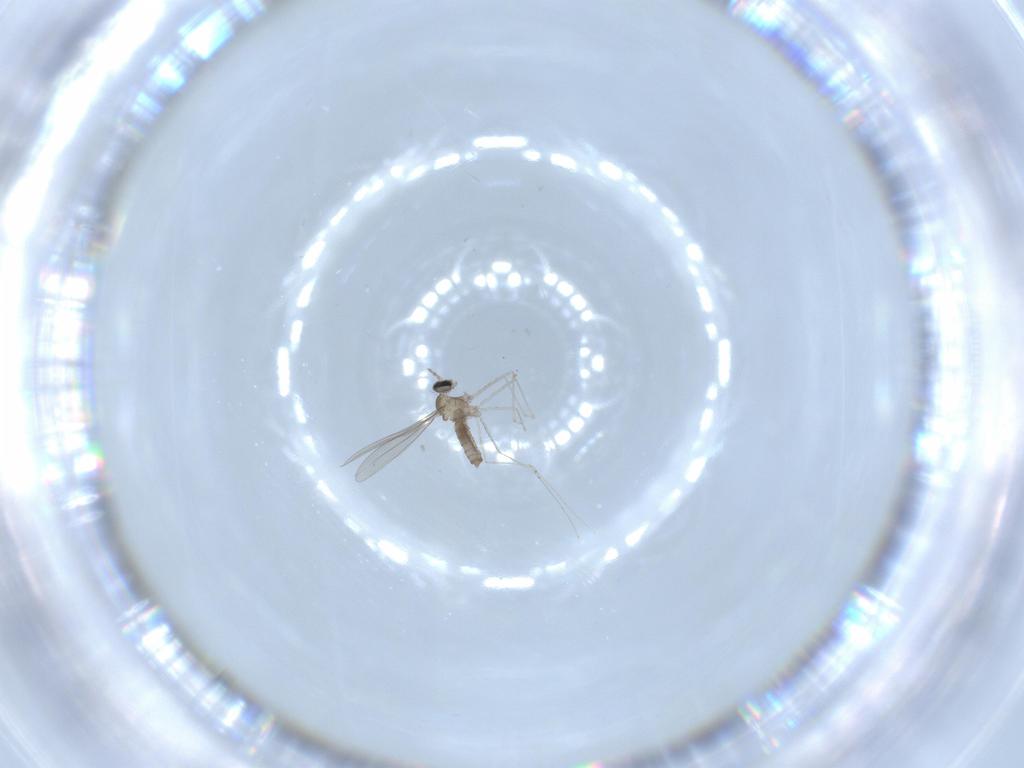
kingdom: Animalia
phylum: Arthropoda
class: Insecta
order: Diptera
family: Cecidomyiidae
